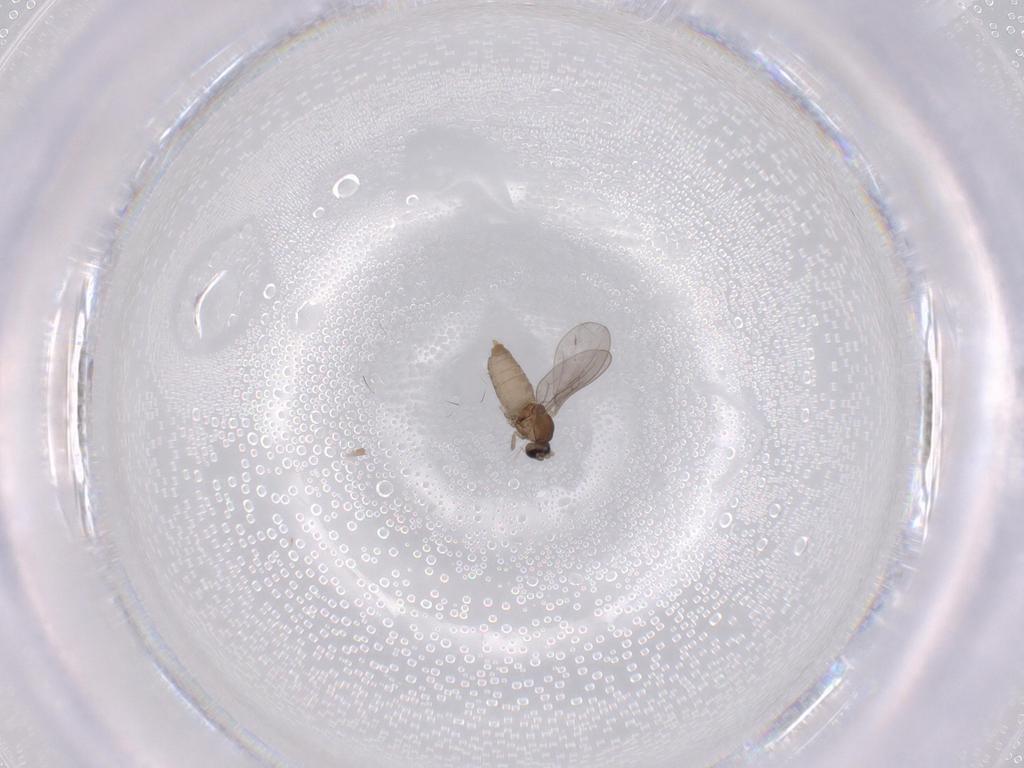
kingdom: Animalia
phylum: Arthropoda
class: Insecta
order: Diptera
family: Cecidomyiidae
